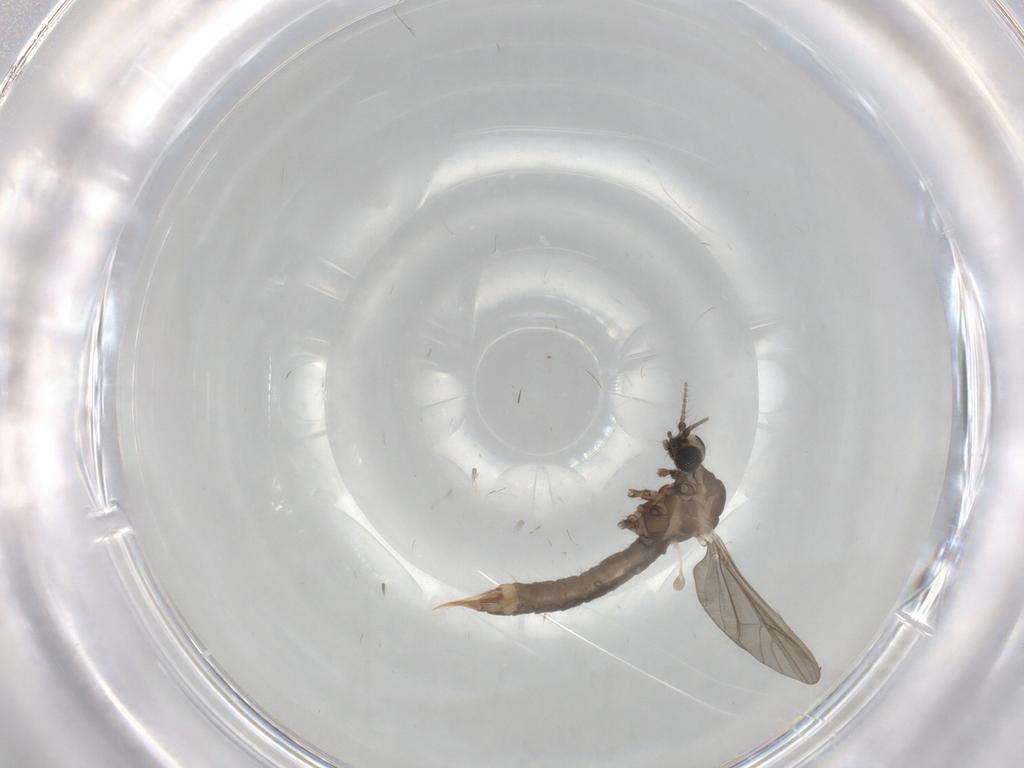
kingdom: Animalia
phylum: Arthropoda
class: Insecta
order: Diptera
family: Limoniidae
